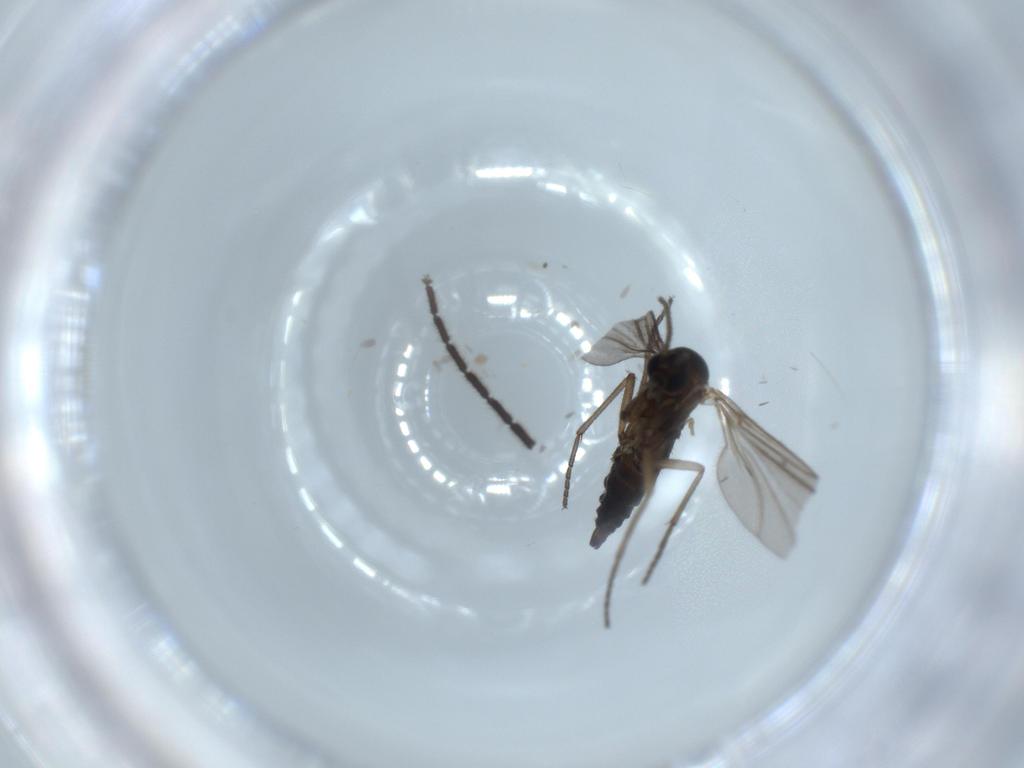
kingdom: Animalia
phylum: Arthropoda
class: Insecta
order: Diptera
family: Sciaridae
